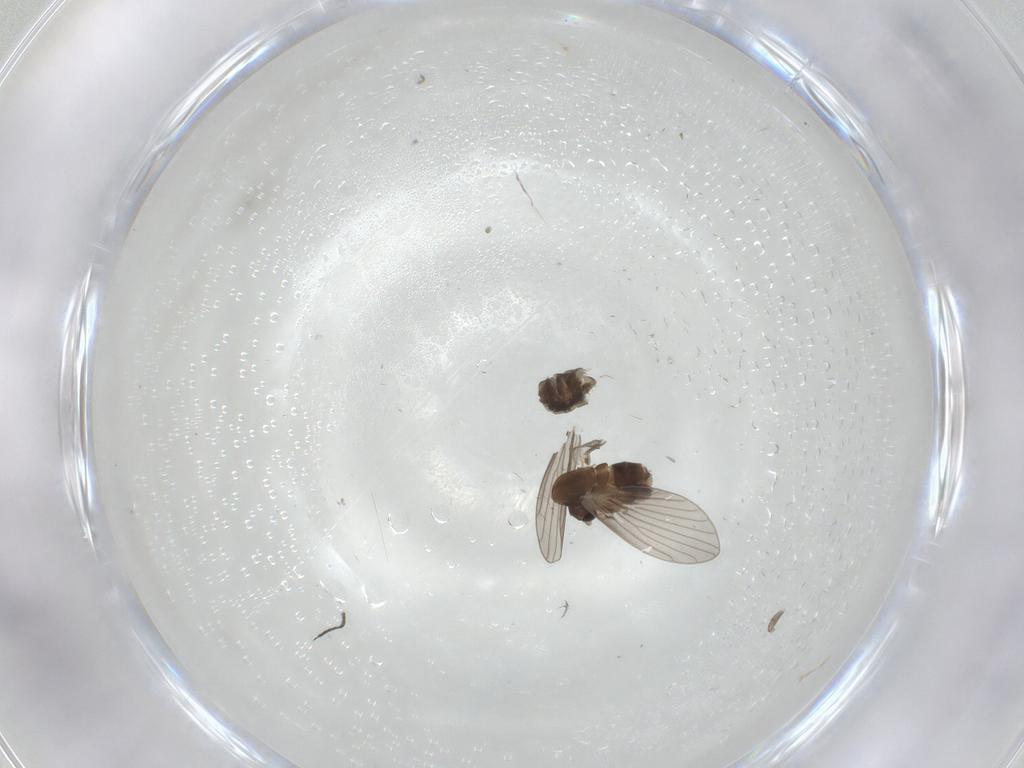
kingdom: Animalia
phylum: Arthropoda
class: Insecta
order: Diptera
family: Psychodidae
